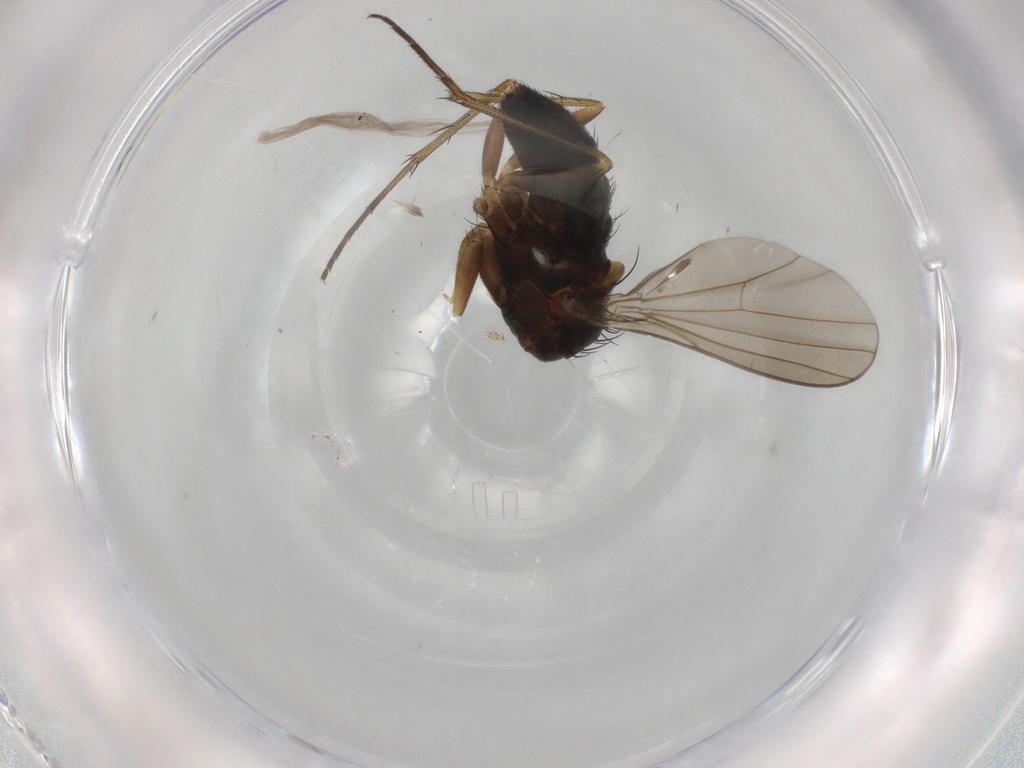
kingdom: Animalia
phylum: Arthropoda
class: Insecta
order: Diptera
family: Dolichopodidae
